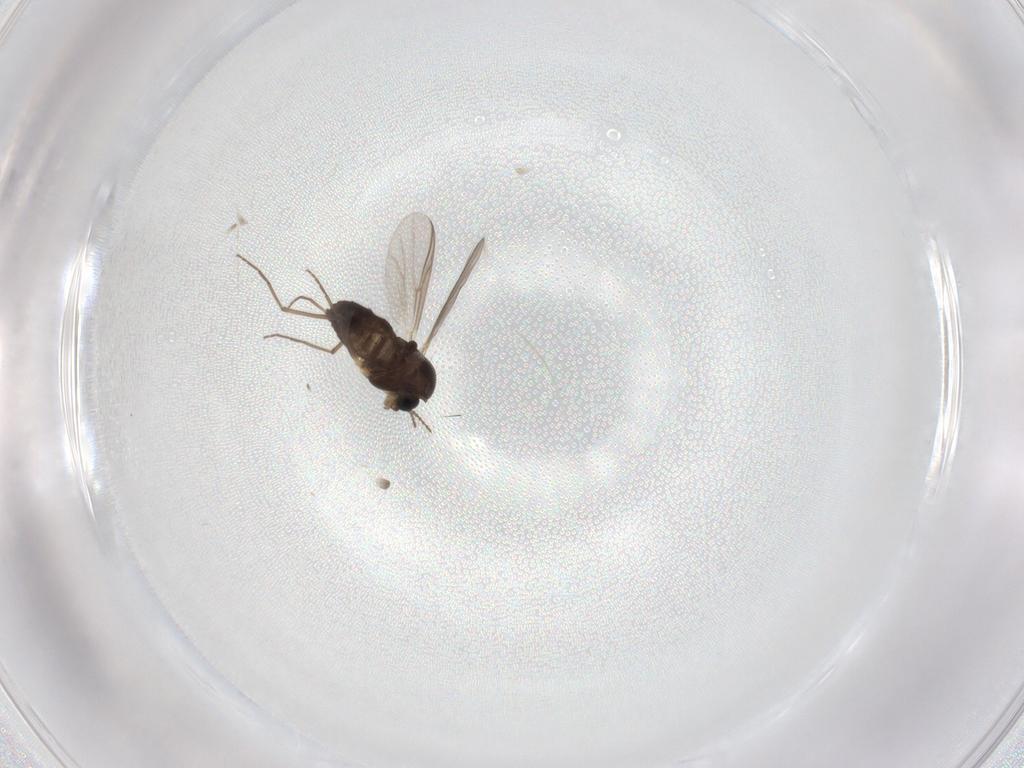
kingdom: Animalia
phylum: Arthropoda
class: Insecta
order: Diptera
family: Chironomidae
